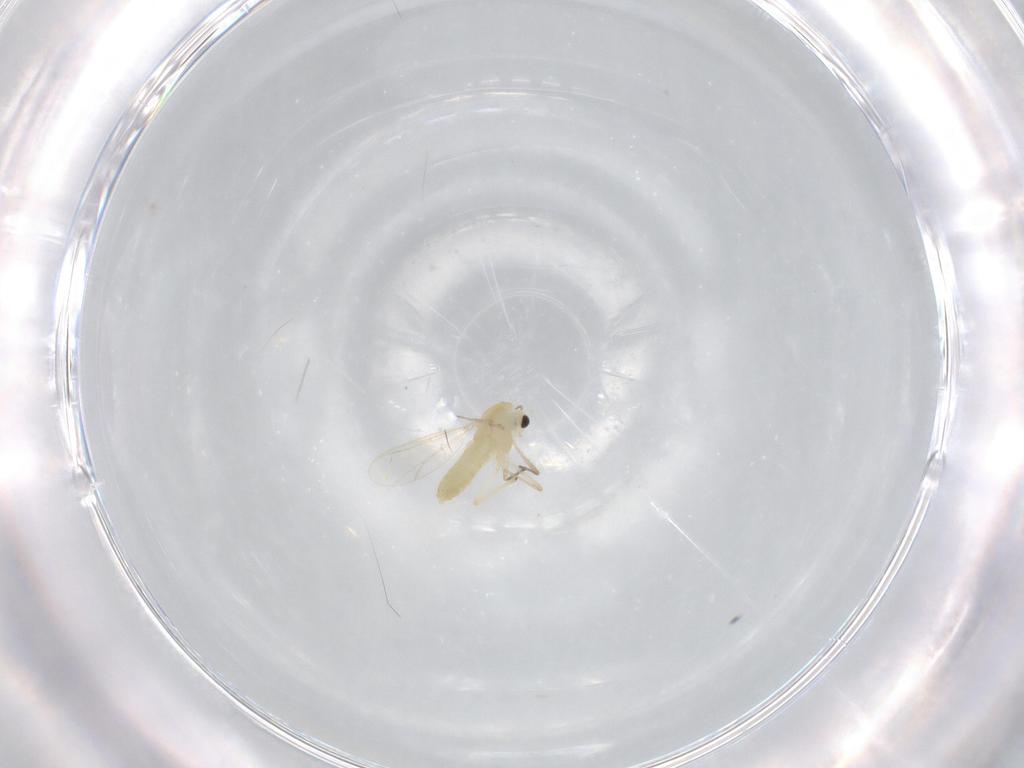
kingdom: Animalia
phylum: Arthropoda
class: Insecta
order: Diptera
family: Chironomidae
